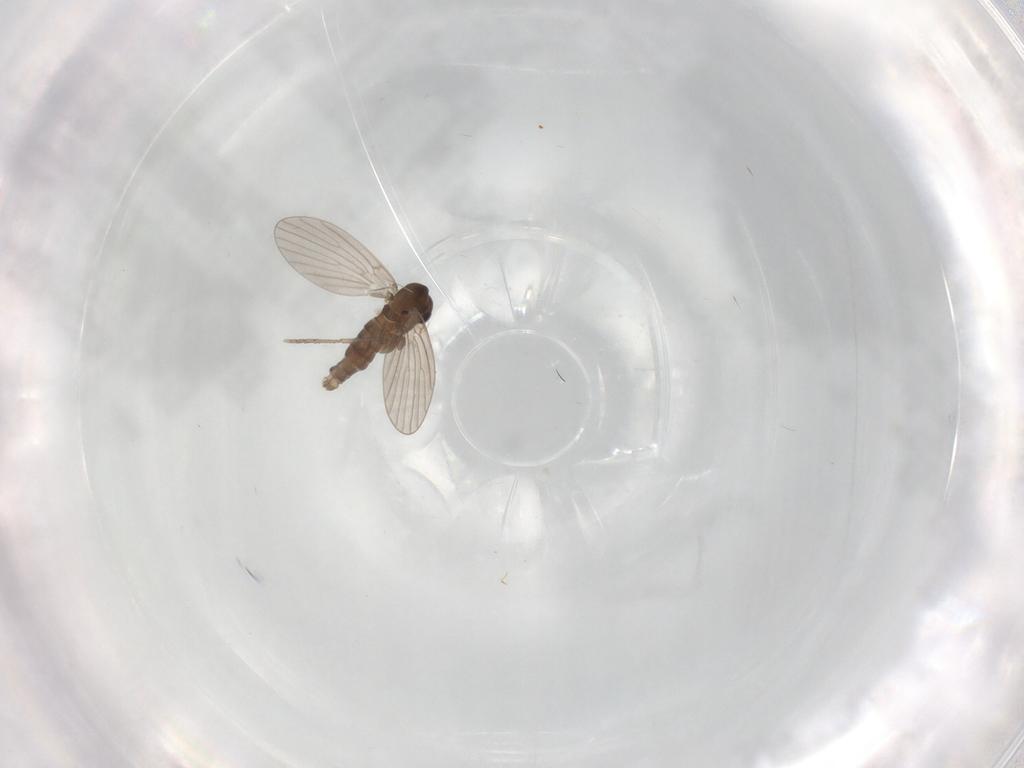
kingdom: Animalia
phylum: Arthropoda
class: Insecta
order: Diptera
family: Cecidomyiidae
